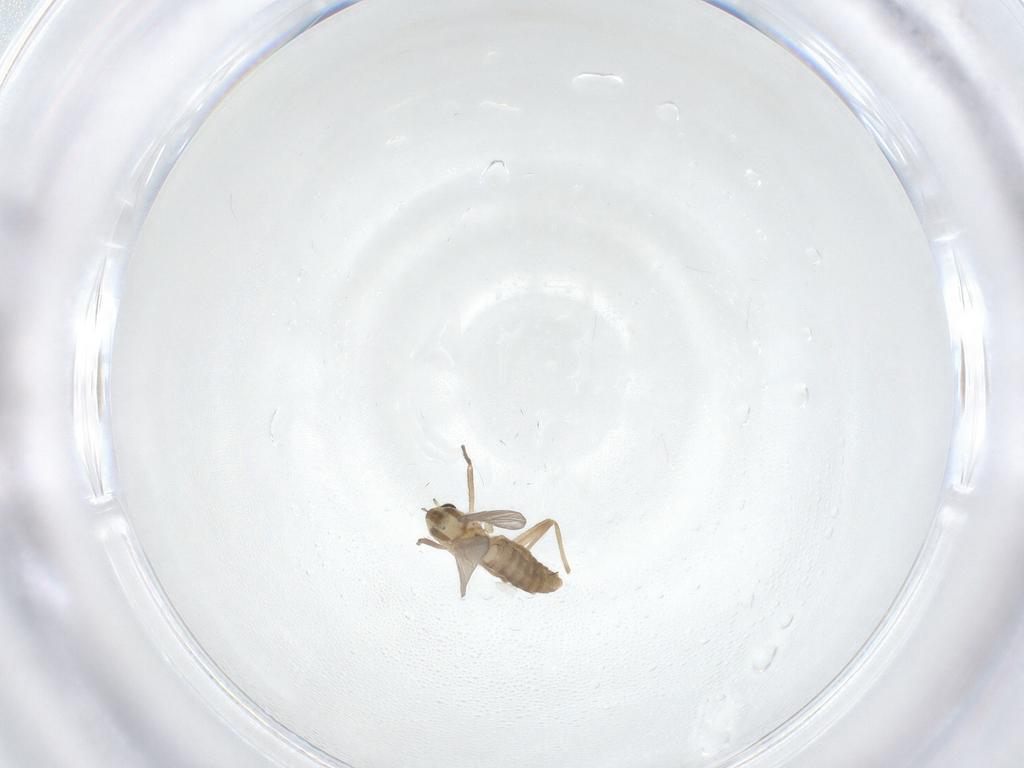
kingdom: Animalia
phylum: Arthropoda
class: Insecta
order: Diptera
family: Chironomidae
